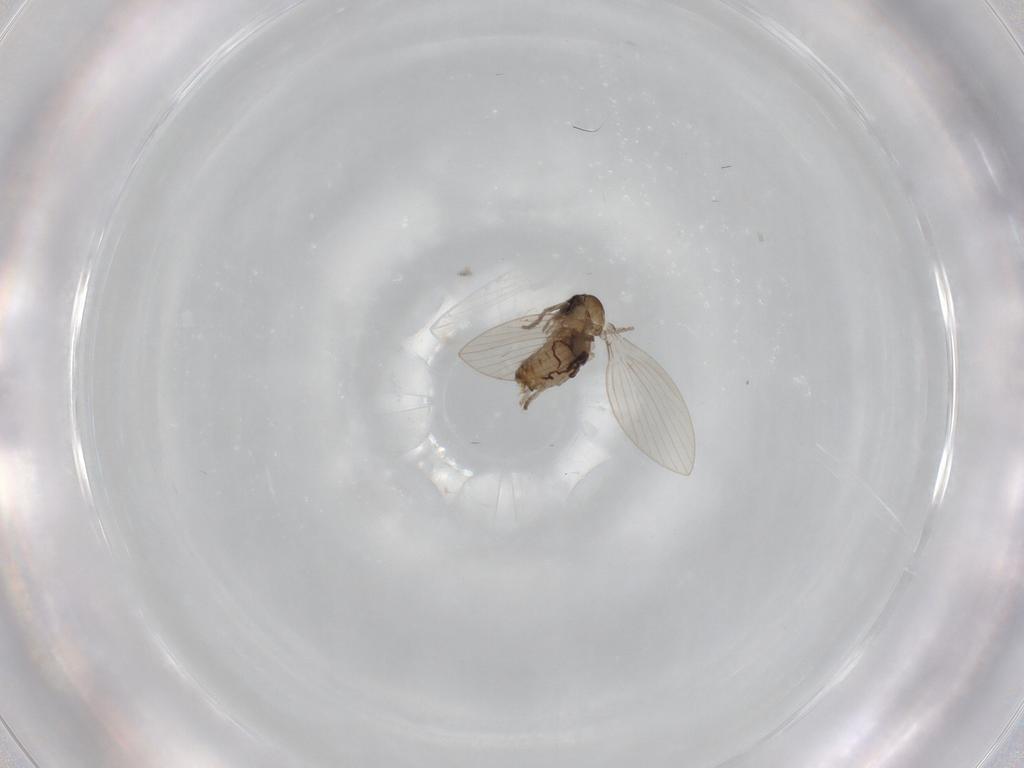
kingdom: Animalia
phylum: Arthropoda
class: Insecta
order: Diptera
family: Psychodidae
